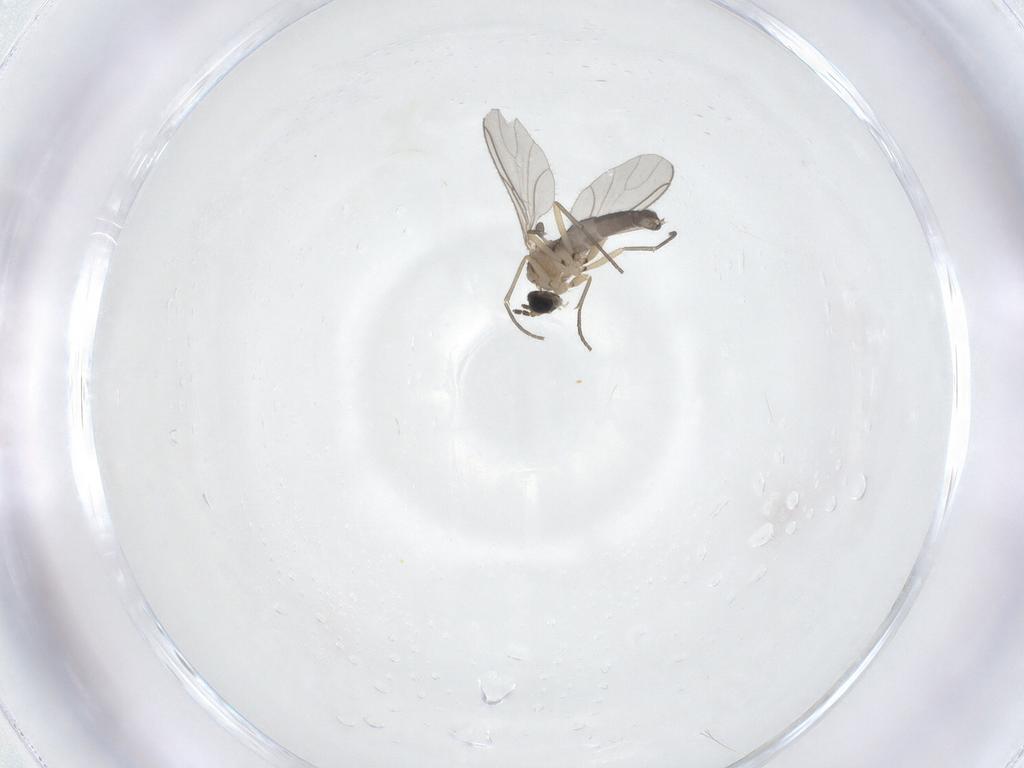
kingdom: Animalia
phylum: Arthropoda
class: Insecta
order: Diptera
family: Sciaridae
